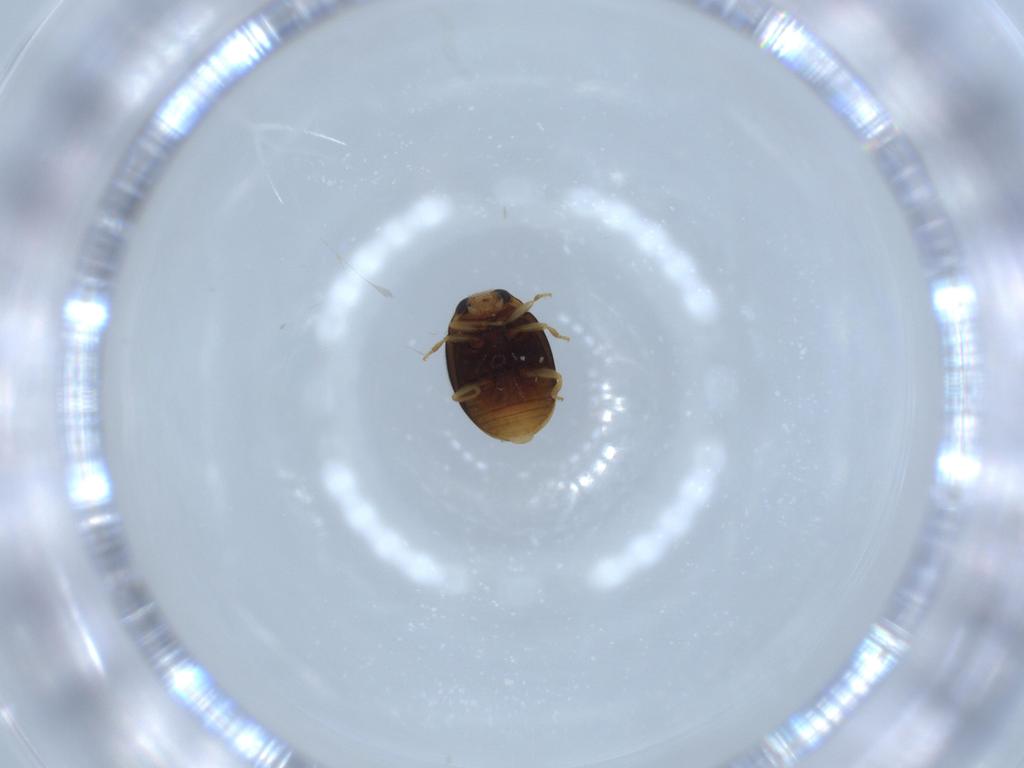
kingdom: Animalia
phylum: Arthropoda
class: Insecta
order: Coleoptera
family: Coccinellidae
